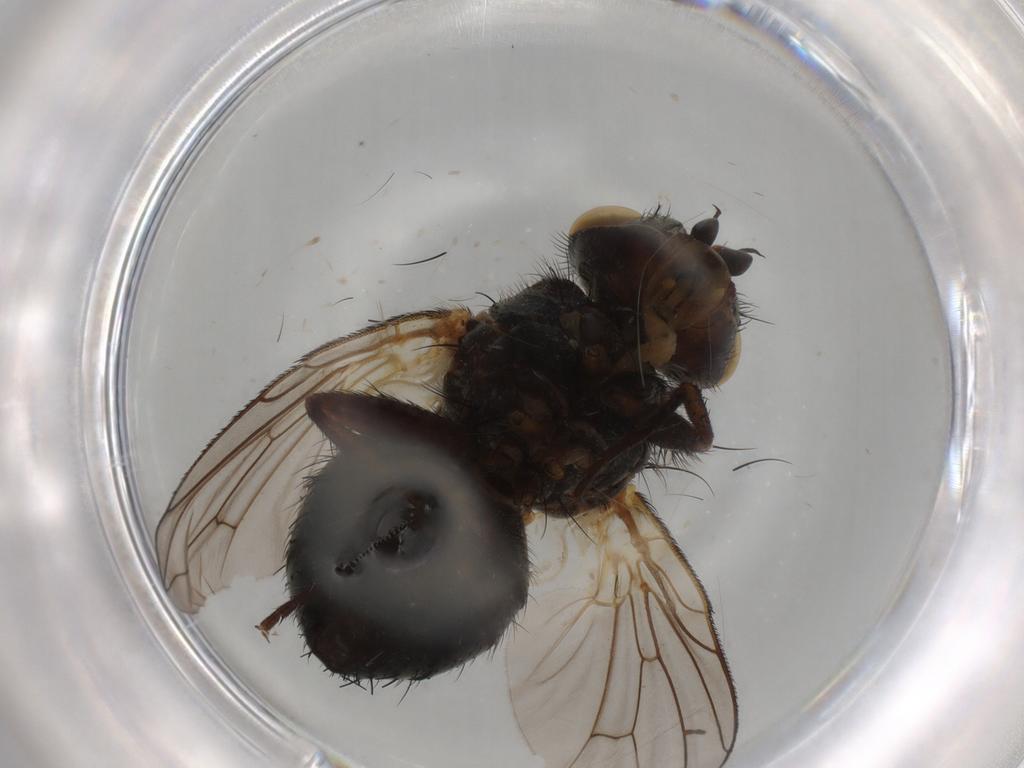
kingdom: Animalia
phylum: Arthropoda
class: Insecta
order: Diptera
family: Tachinidae
